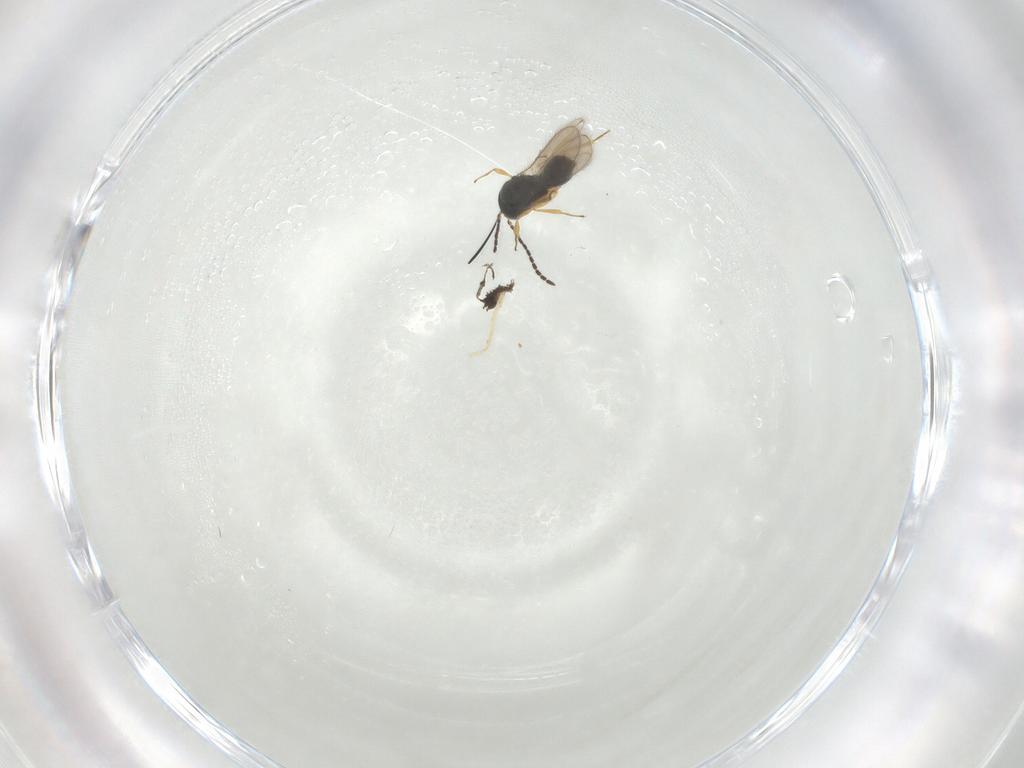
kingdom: Animalia
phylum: Arthropoda
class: Insecta
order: Hymenoptera
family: Scelionidae
